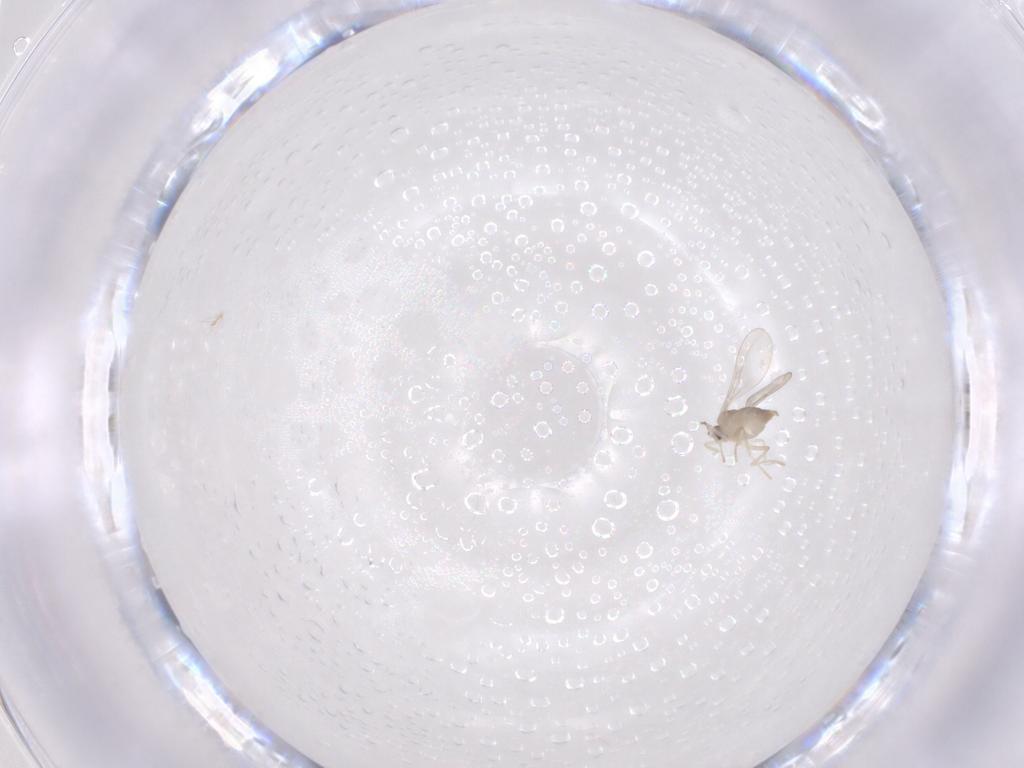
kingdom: Animalia
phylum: Arthropoda
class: Insecta
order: Diptera
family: Cecidomyiidae
